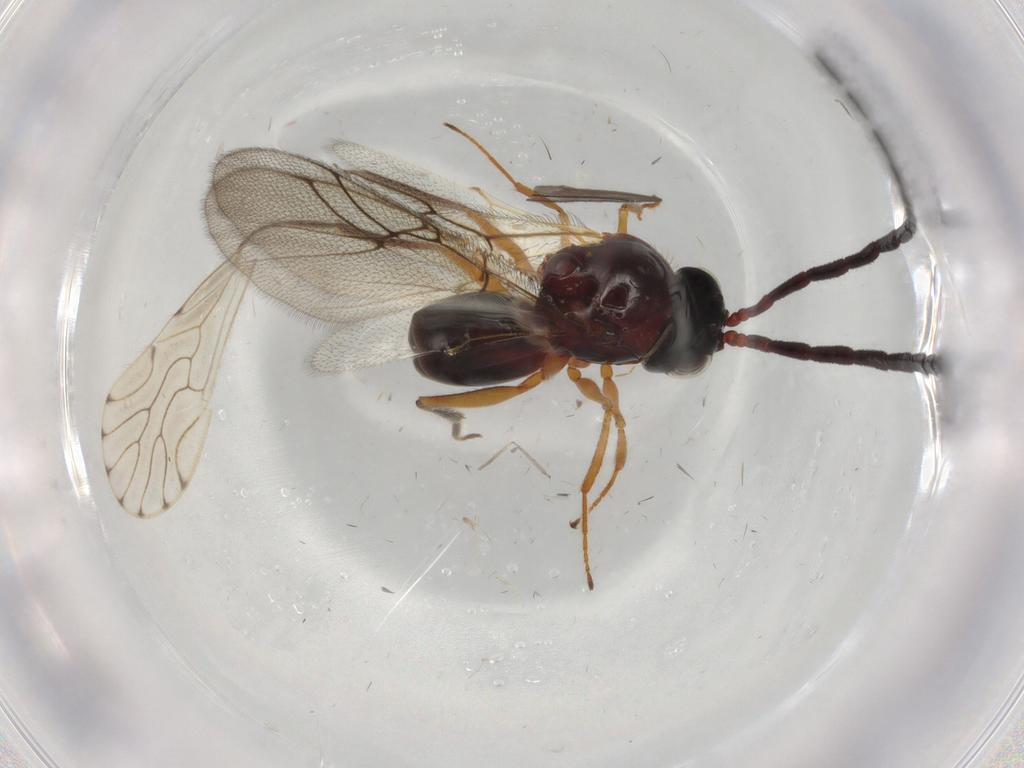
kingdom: Animalia
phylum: Arthropoda
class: Insecta
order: Hymenoptera
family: Figitidae
